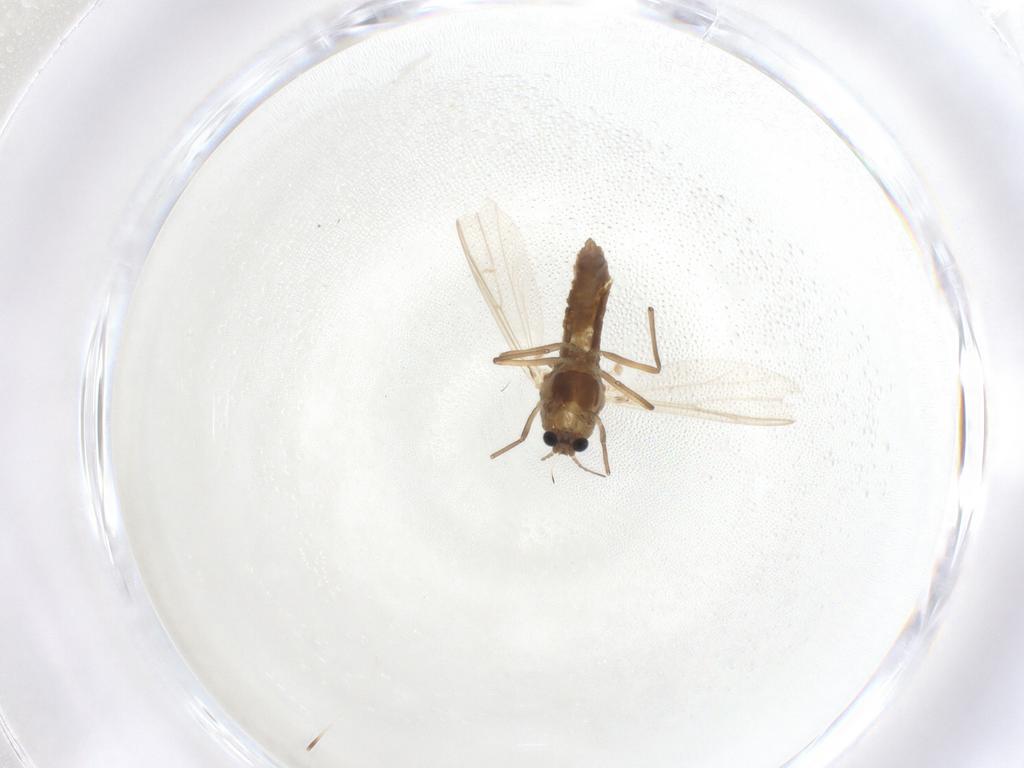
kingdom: Animalia
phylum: Arthropoda
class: Insecta
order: Diptera
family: Chironomidae
